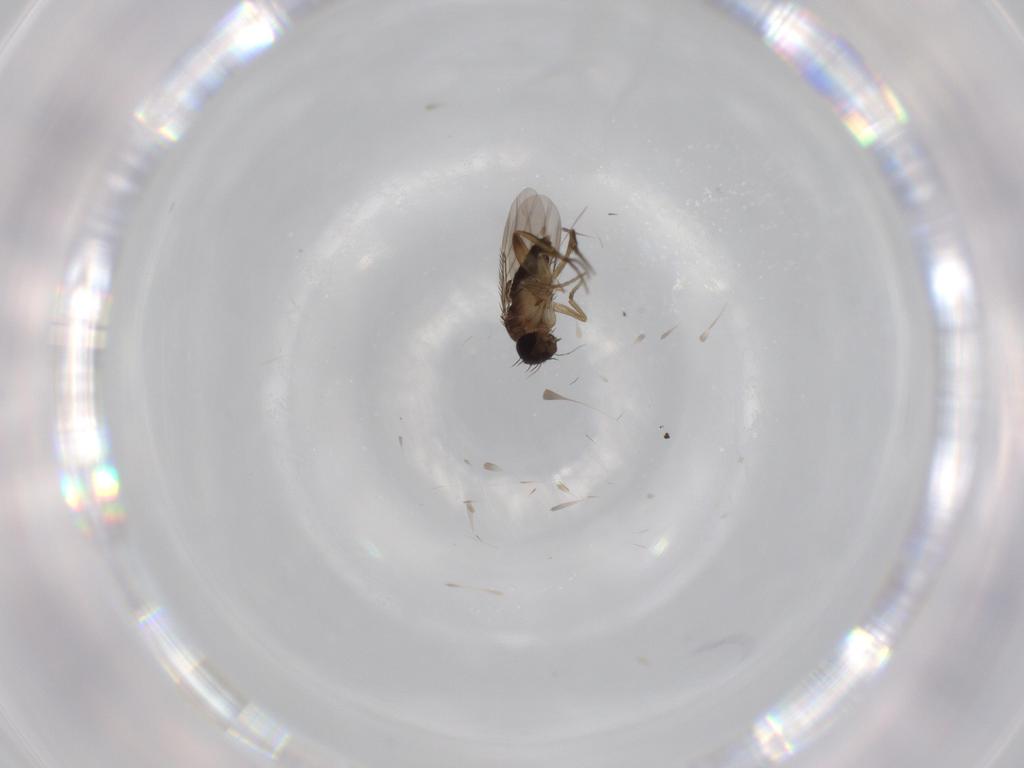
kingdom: Animalia
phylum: Arthropoda
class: Insecta
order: Diptera
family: Phoridae
